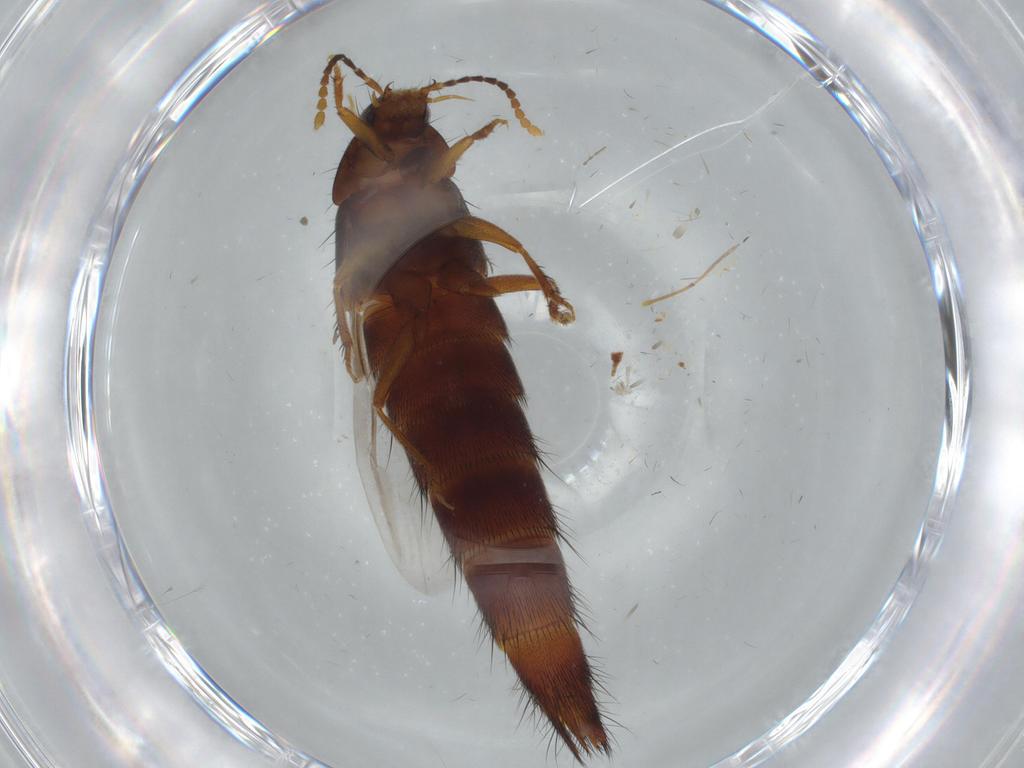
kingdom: Animalia
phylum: Arthropoda
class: Insecta
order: Coleoptera
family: Staphylinidae
